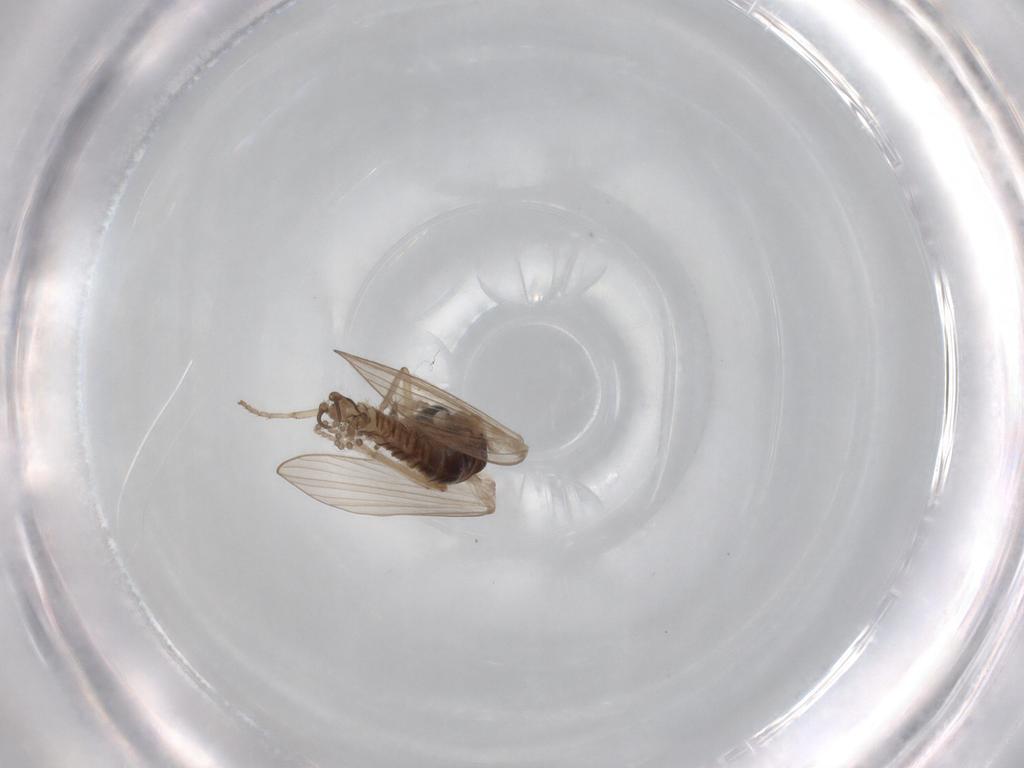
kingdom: Animalia
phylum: Arthropoda
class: Insecta
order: Diptera
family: Psychodidae
